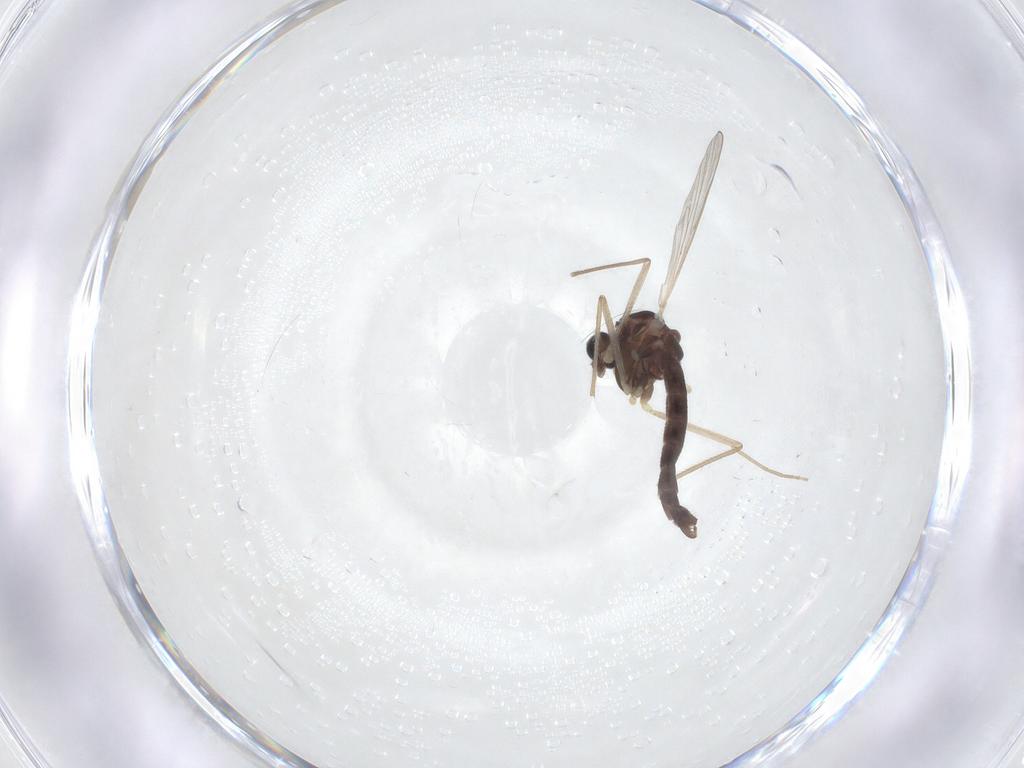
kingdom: Animalia
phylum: Arthropoda
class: Insecta
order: Diptera
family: Chironomidae
